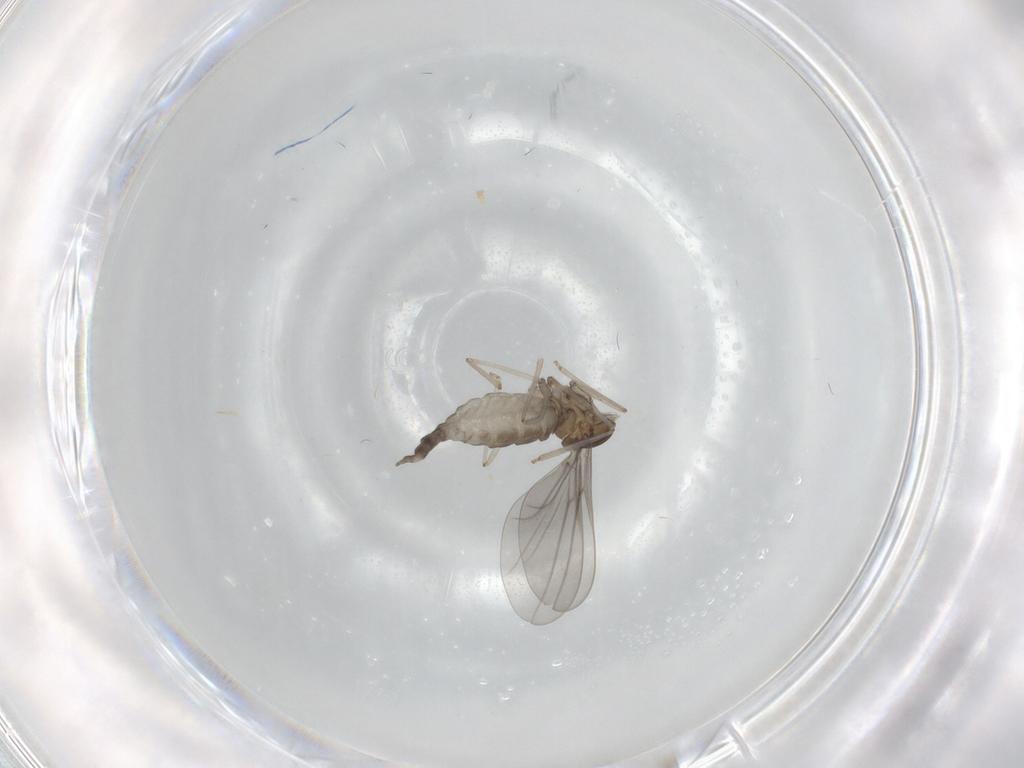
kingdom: Animalia
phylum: Arthropoda
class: Insecta
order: Diptera
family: Cecidomyiidae
